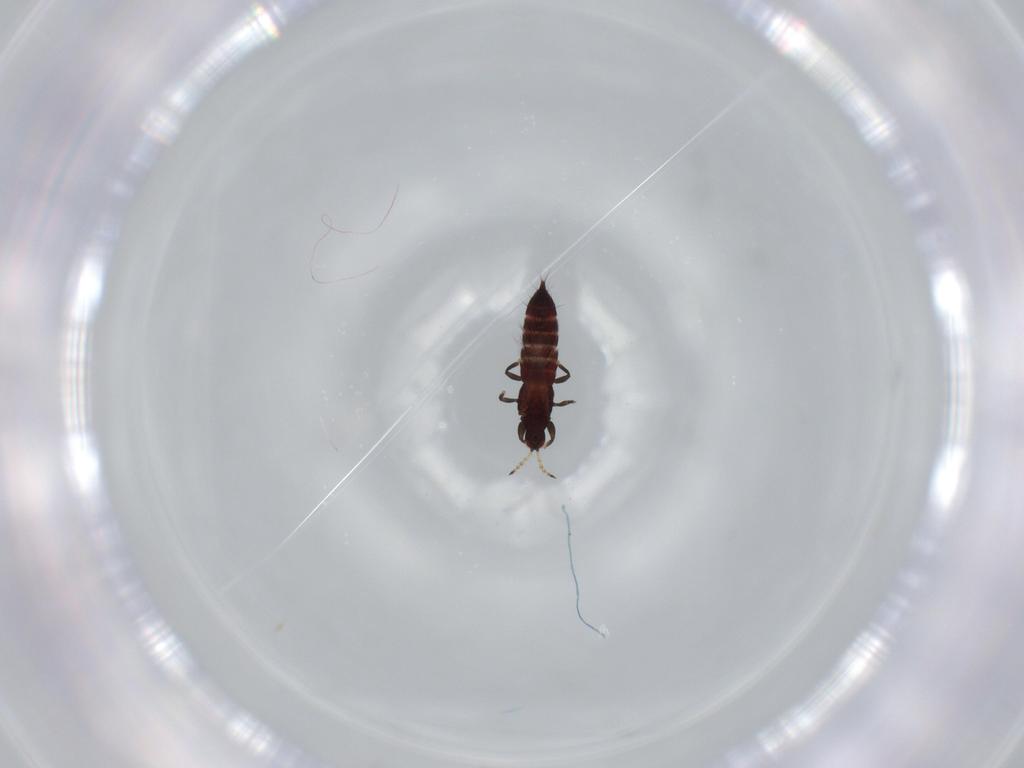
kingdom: Animalia
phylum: Arthropoda
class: Insecta
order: Thysanoptera
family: Phlaeothripidae
